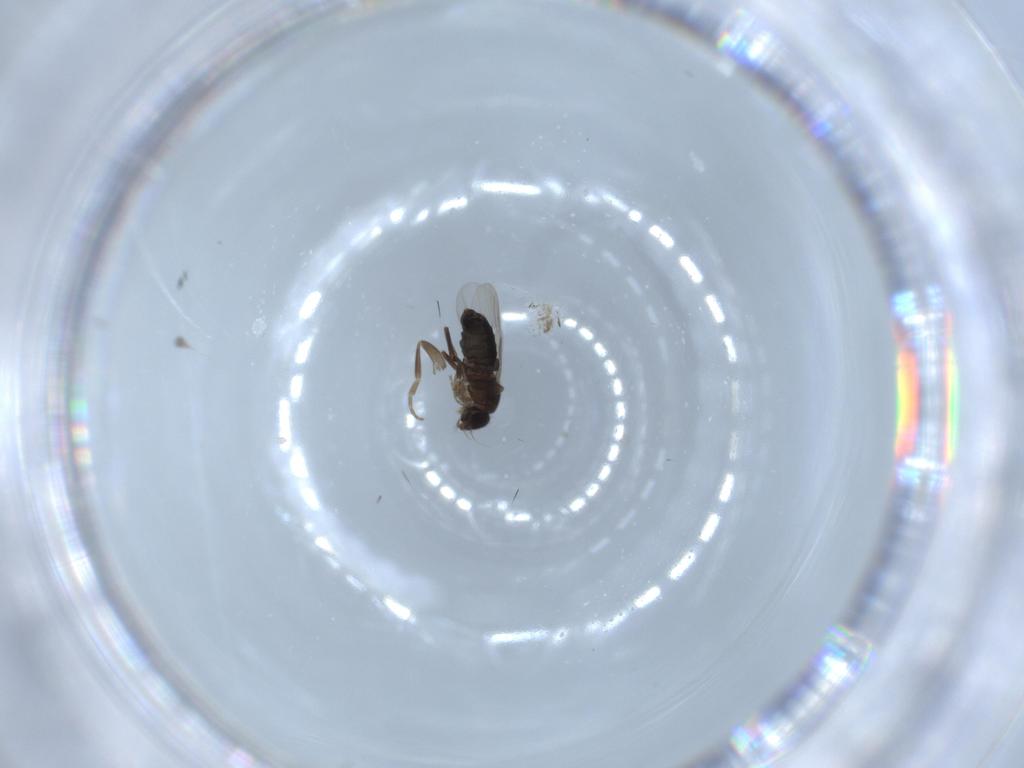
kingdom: Animalia
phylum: Arthropoda
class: Insecta
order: Diptera
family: Phoridae
